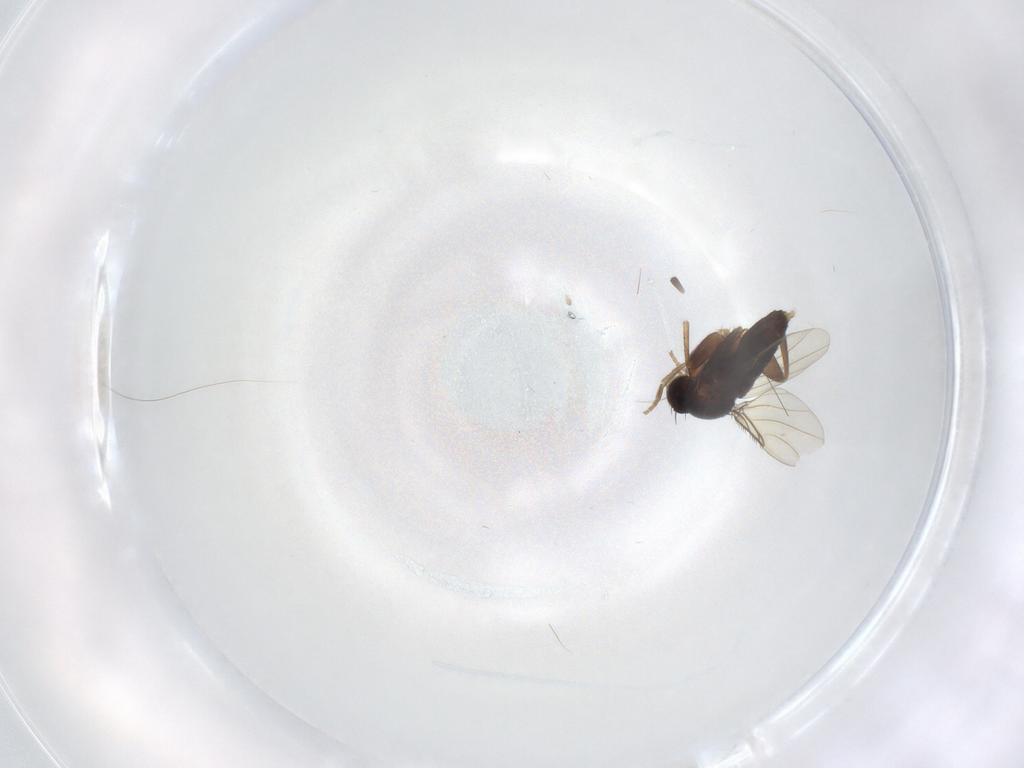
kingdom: Animalia
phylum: Arthropoda
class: Insecta
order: Diptera
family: Phoridae
